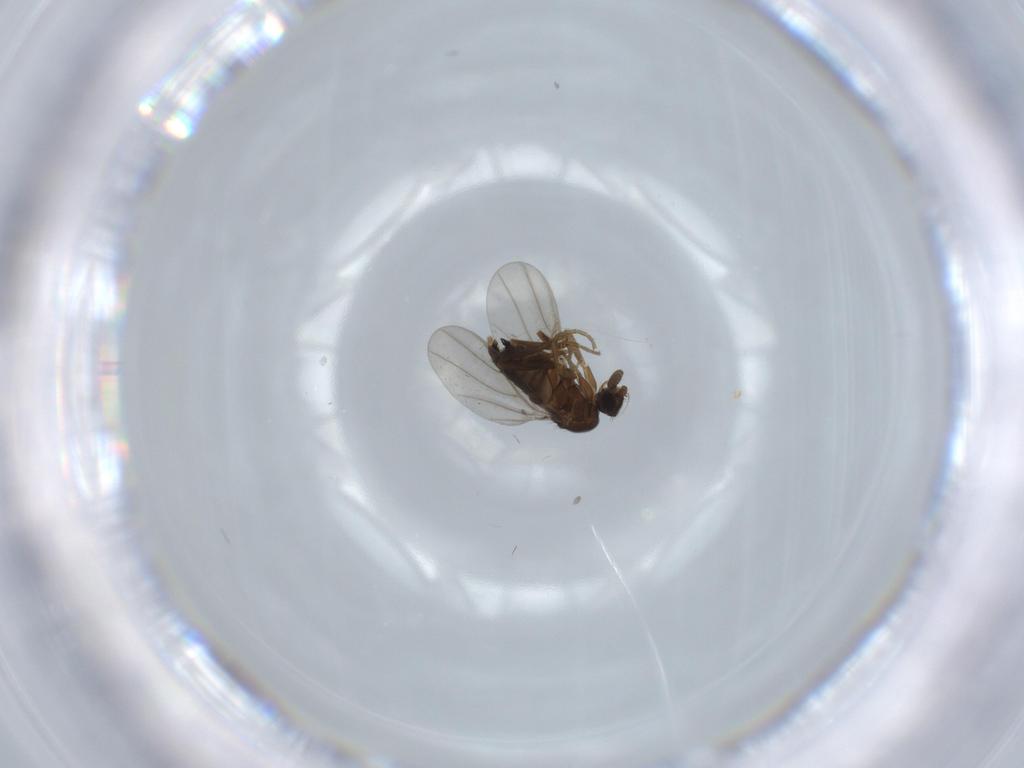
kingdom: Animalia
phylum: Arthropoda
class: Insecta
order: Diptera
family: Phoridae
